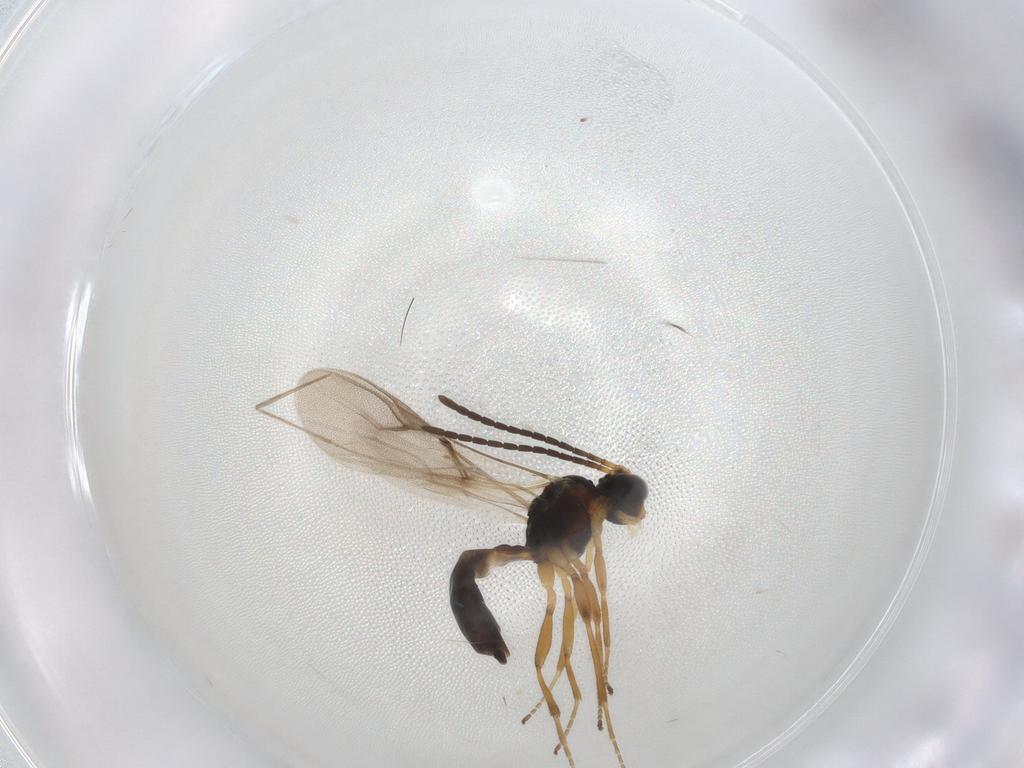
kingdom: Animalia
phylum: Arthropoda
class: Insecta
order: Hymenoptera
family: Braconidae
